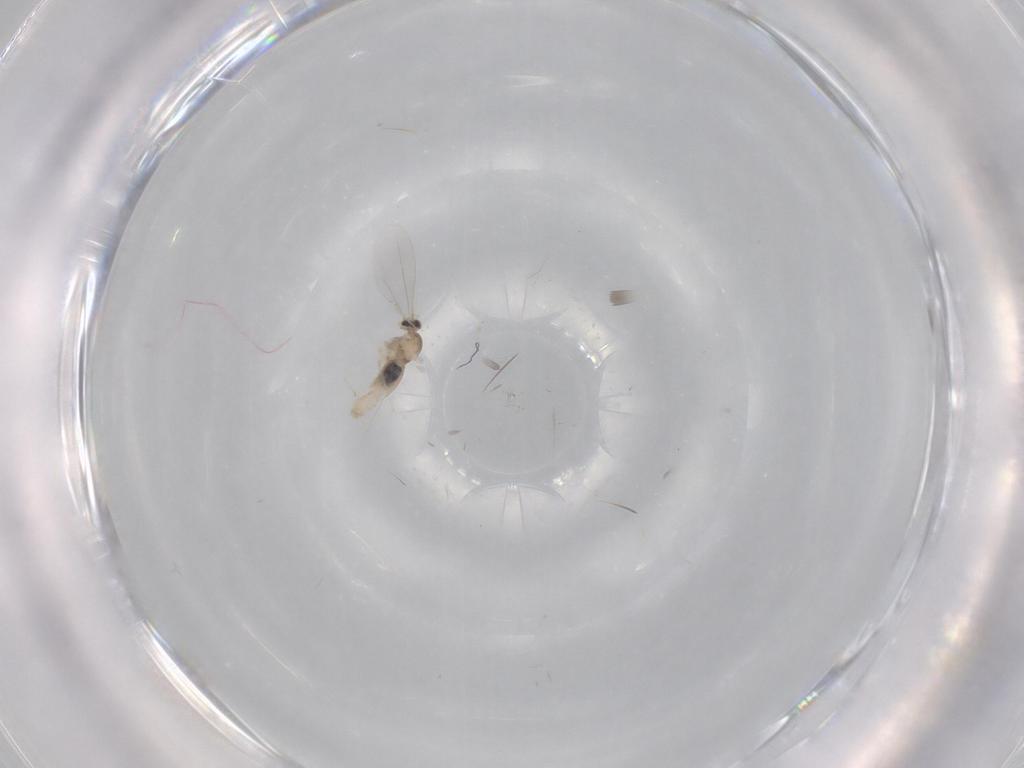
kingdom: Animalia
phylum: Arthropoda
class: Insecta
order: Diptera
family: Cecidomyiidae
